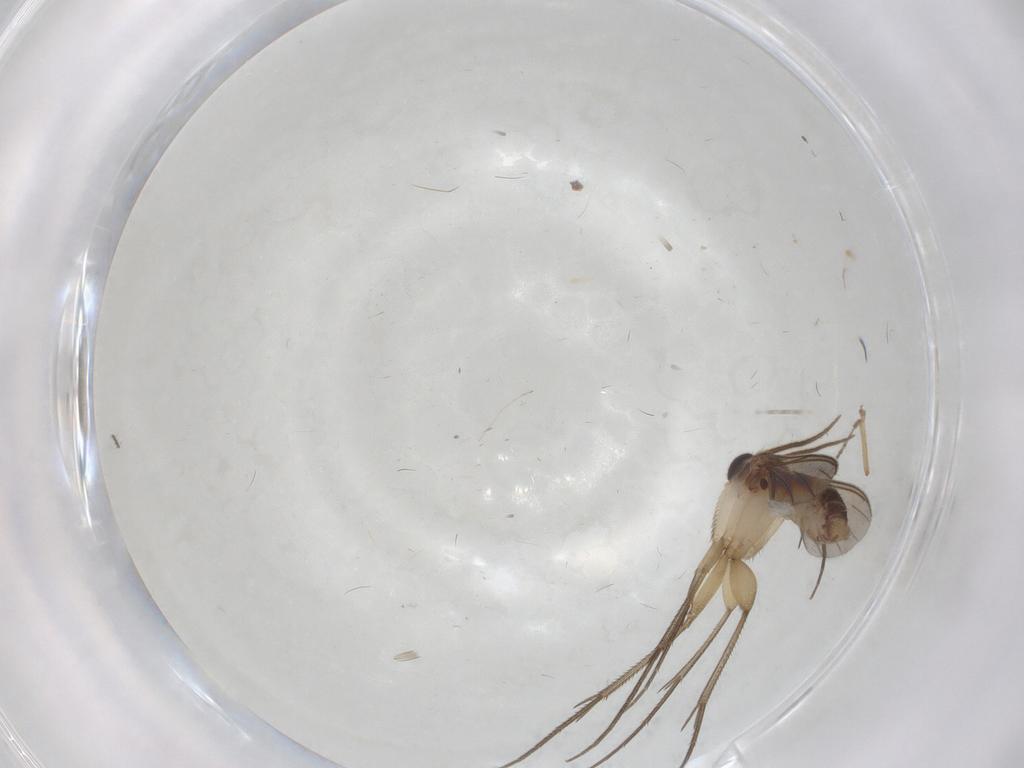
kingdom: Animalia
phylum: Arthropoda
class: Insecta
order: Diptera
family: Mycetophilidae
